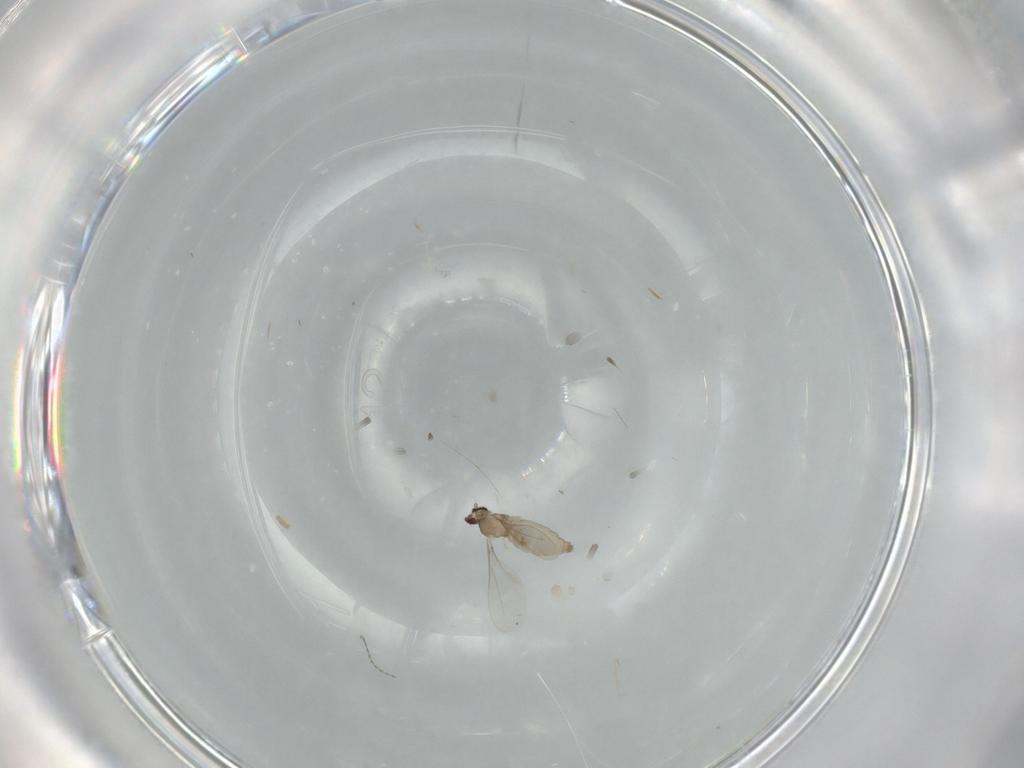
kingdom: Animalia
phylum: Arthropoda
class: Insecta
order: Diptera
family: Cecidomyiidae
